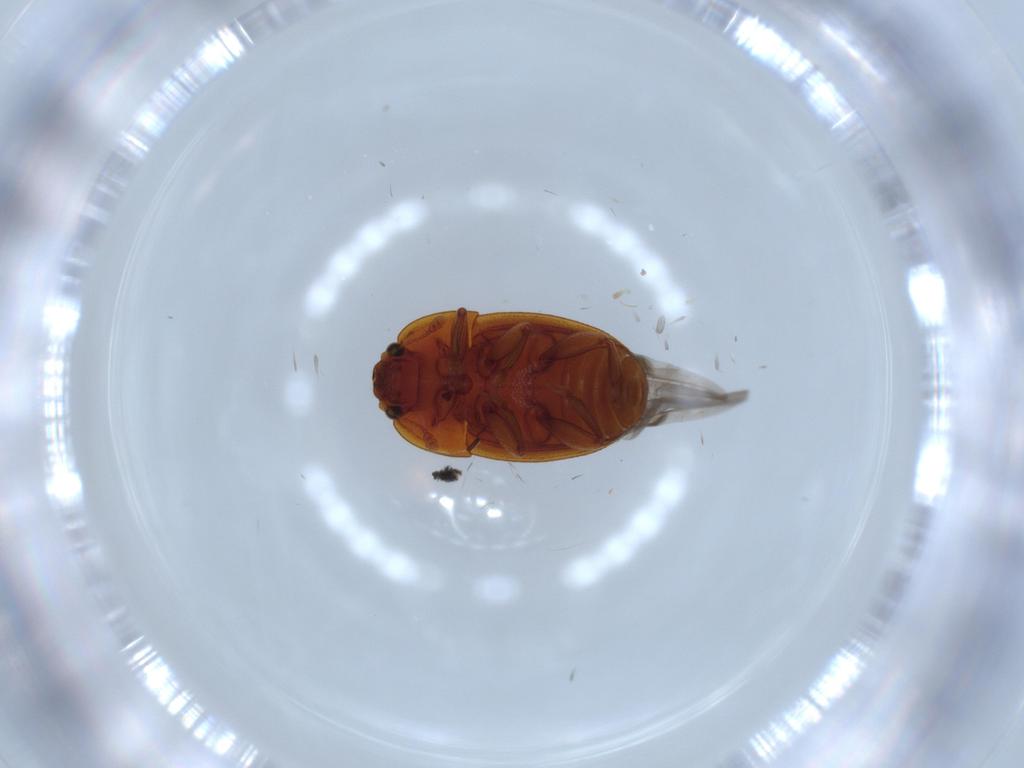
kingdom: Animalia
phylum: Arthropoda
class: Insecta
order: Coleoptera
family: Nitidulidae
